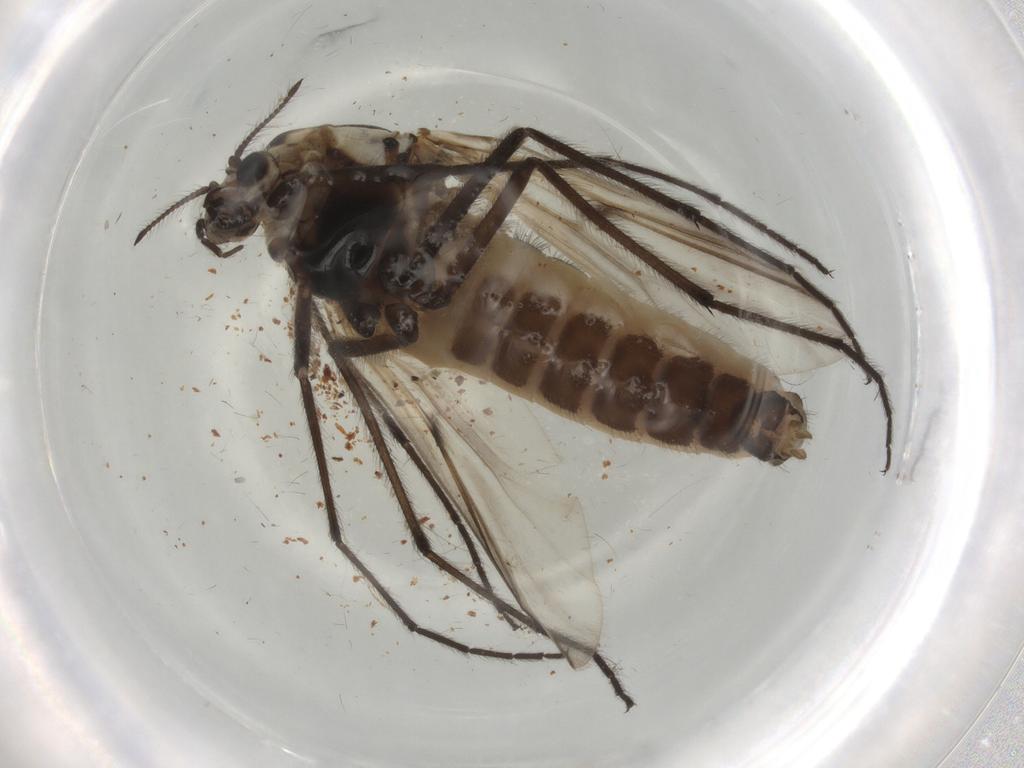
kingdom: Animalia
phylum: Arthropoda
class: Insecta
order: Diptera
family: Chironomidae
